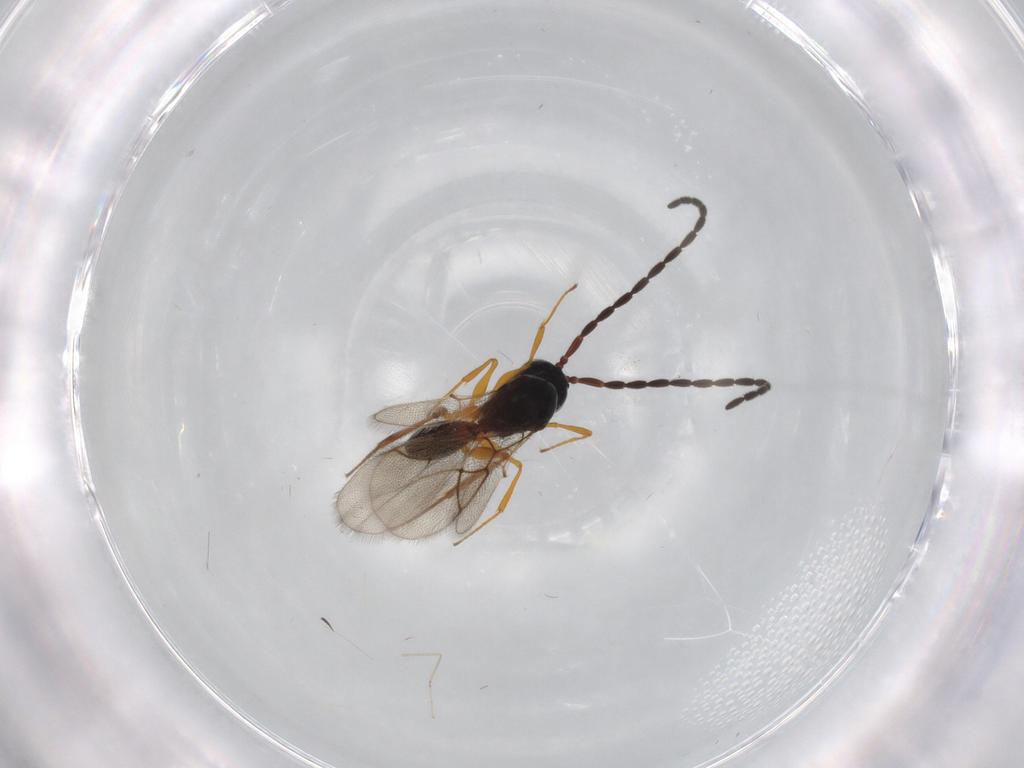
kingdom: Animalia
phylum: Arthropoda
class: Insecta
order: Hymenoptera
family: Figitidae
